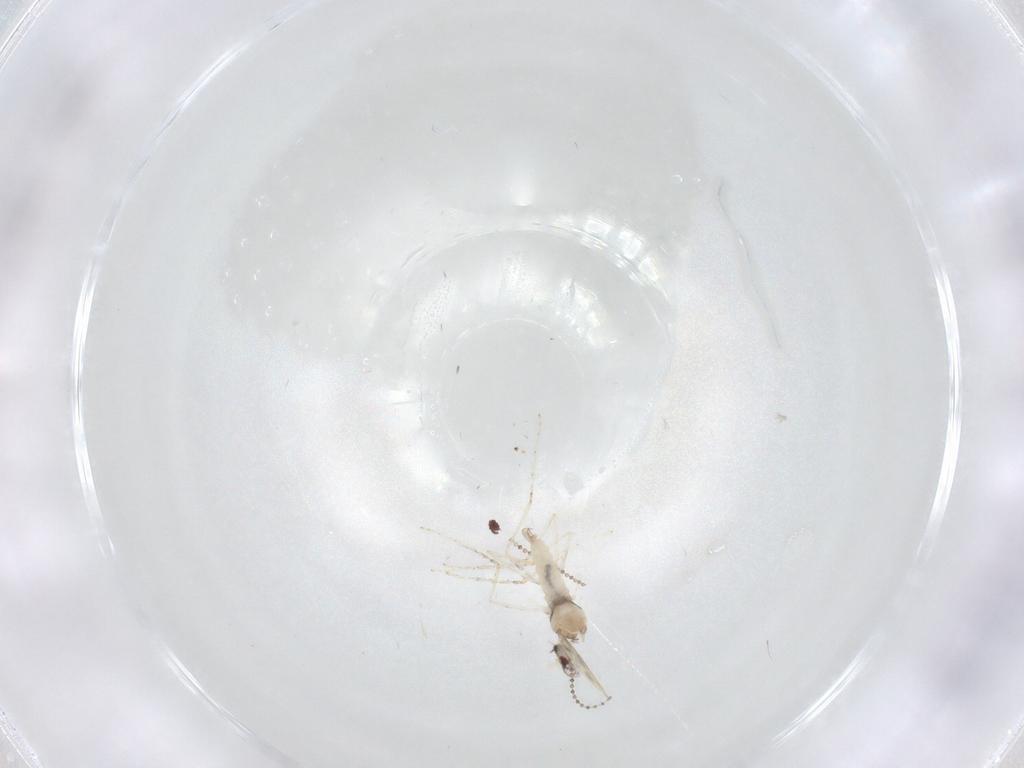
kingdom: Animalia
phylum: Arthropoda
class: Insecta
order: Diptera
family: Cecidomyiidae
